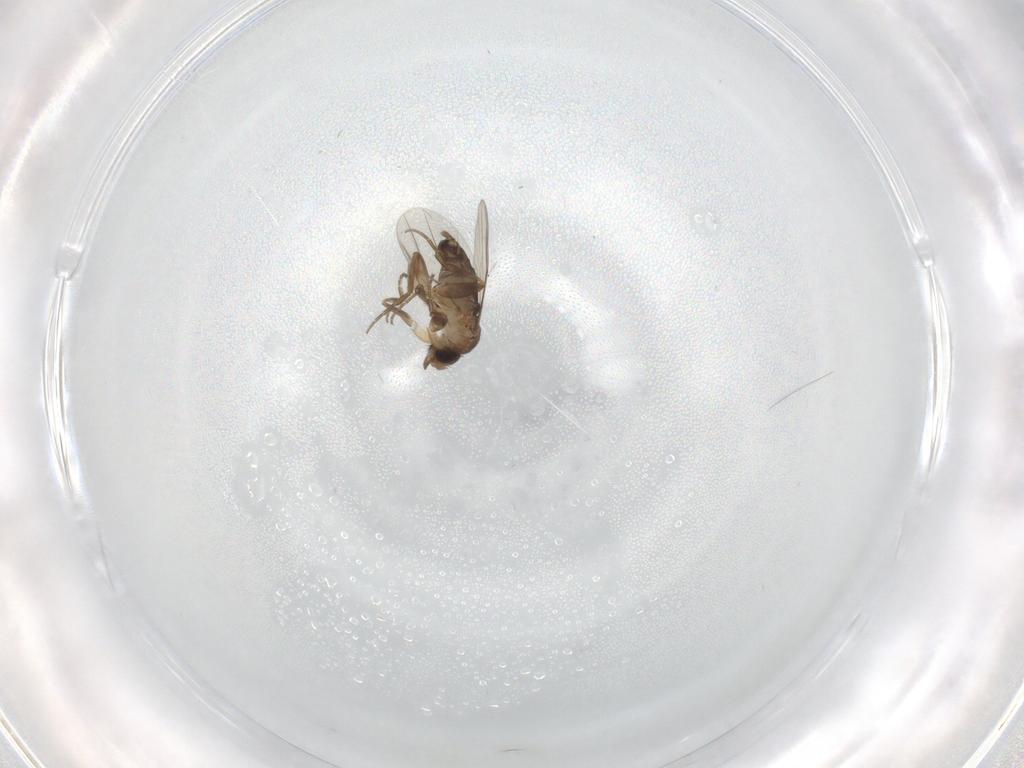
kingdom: Animalia
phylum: Arthropoda
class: Insecta
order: Diptera
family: Phoridae
